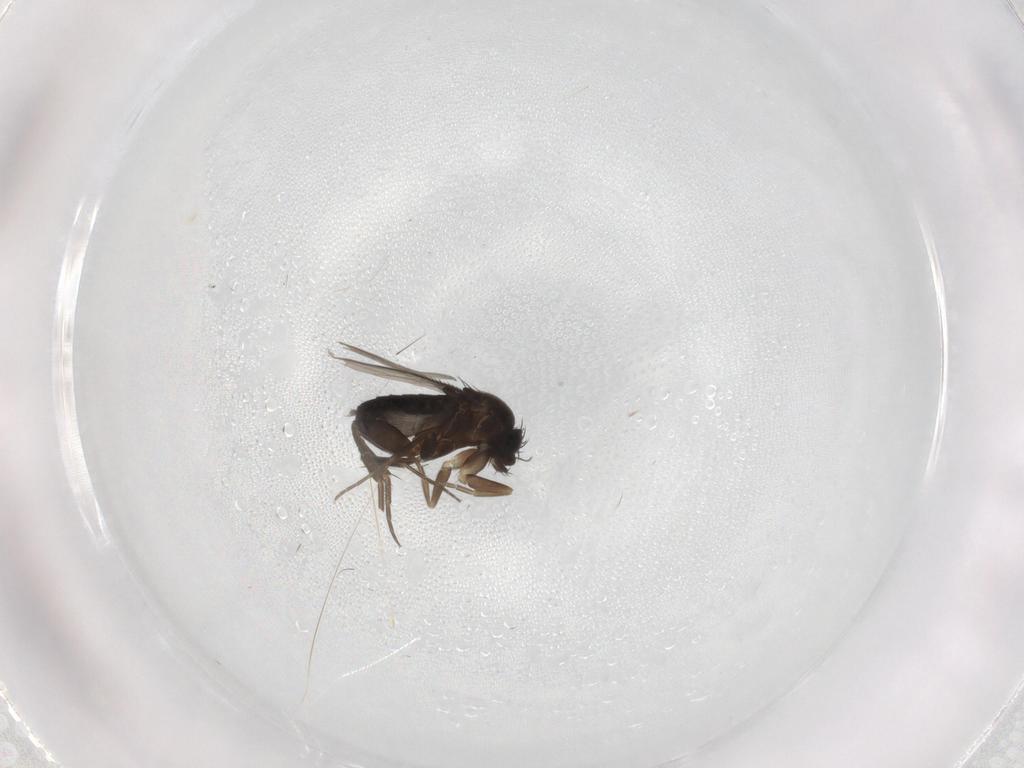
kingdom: Animalia
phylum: Arthropoda
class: Insecta
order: Diptera
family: Phoridae
